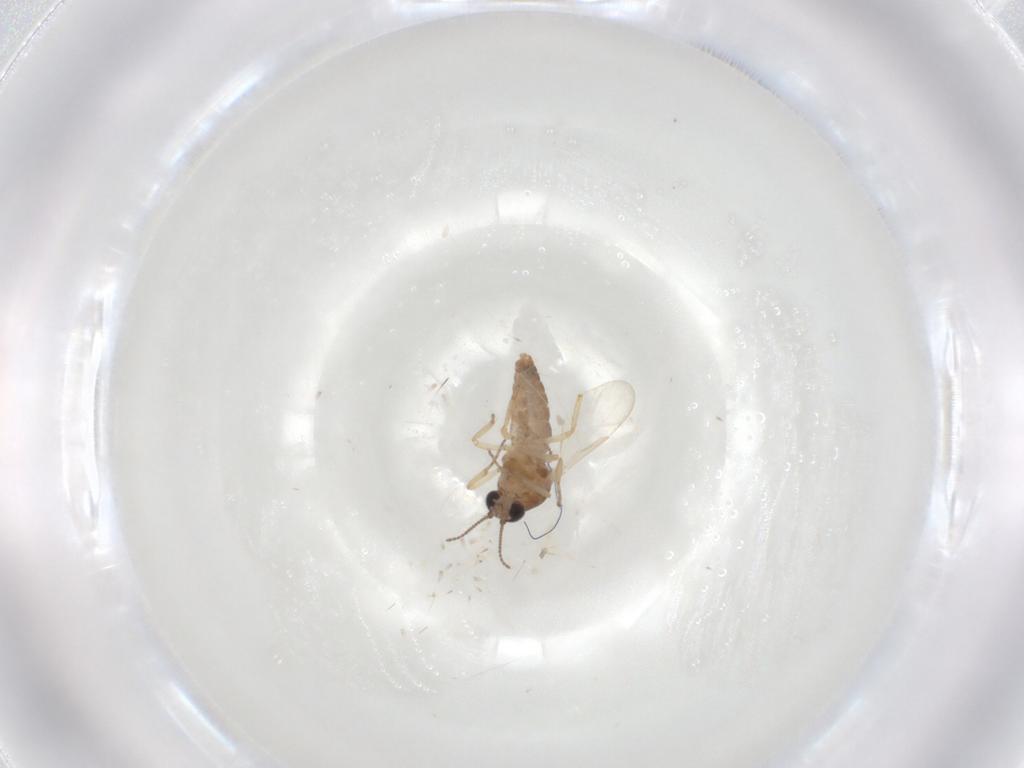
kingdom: Animalia
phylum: Arthropoda
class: Insecta
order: Diptera
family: Ceratopogonidae
